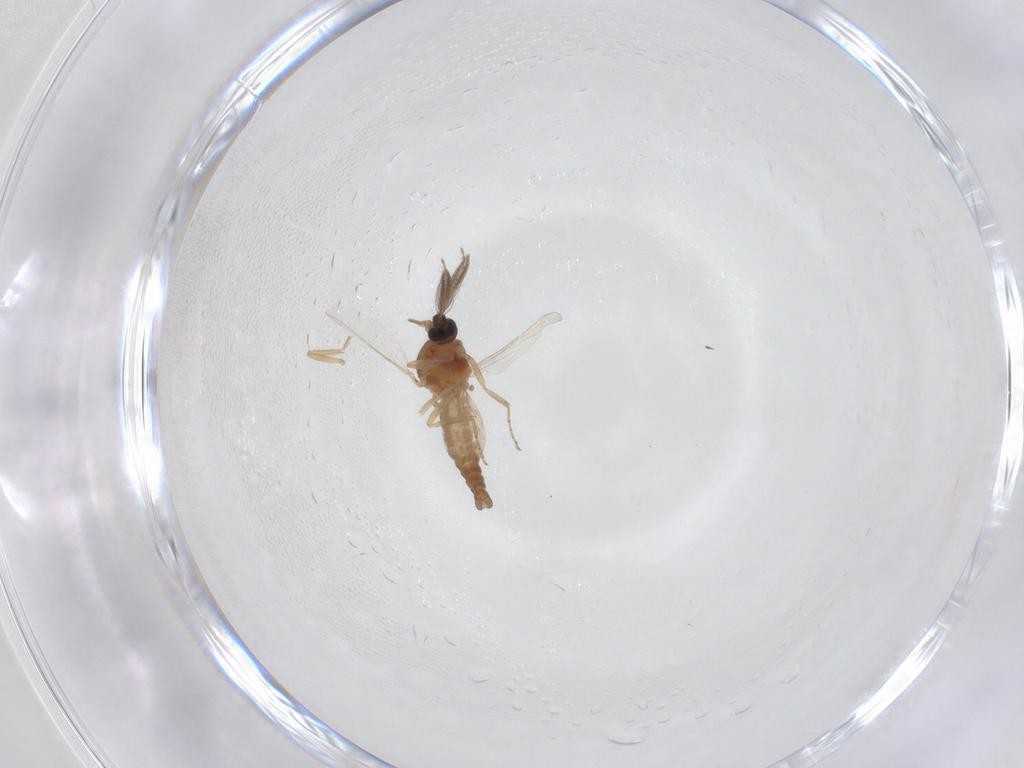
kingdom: Animalia
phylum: Arthropoda
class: Insecta
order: Diptera
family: Ceratopogonidae
